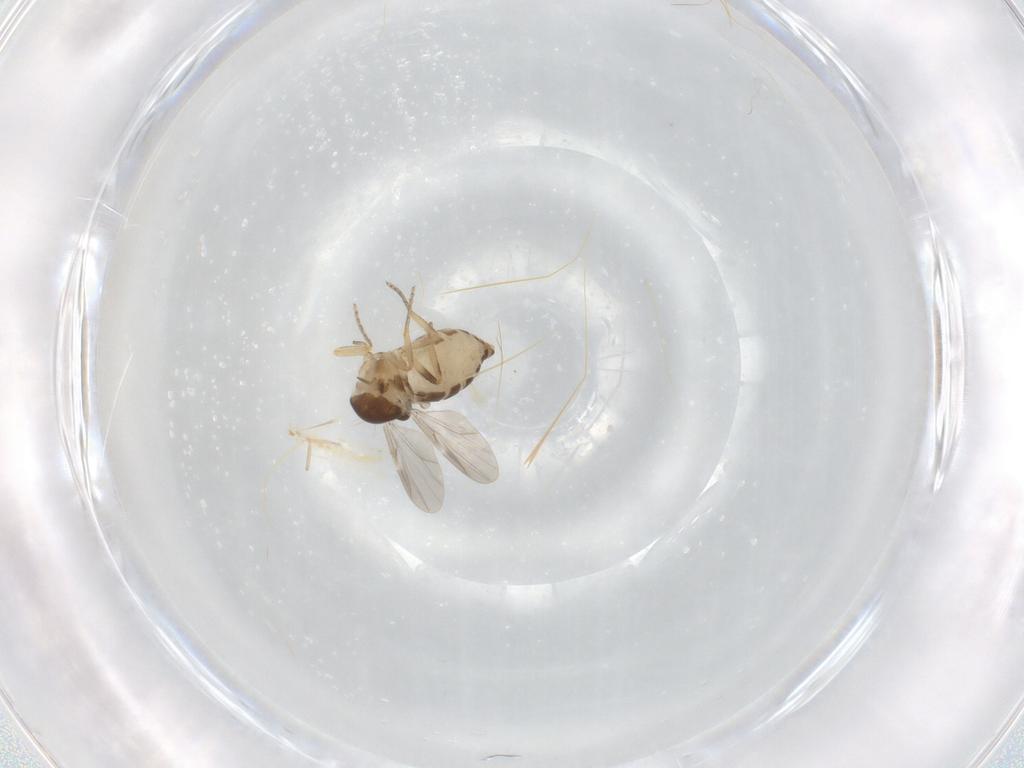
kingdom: Animalia
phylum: Arthropoda
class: Insecta
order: Diptera
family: Ceratopogonidae
